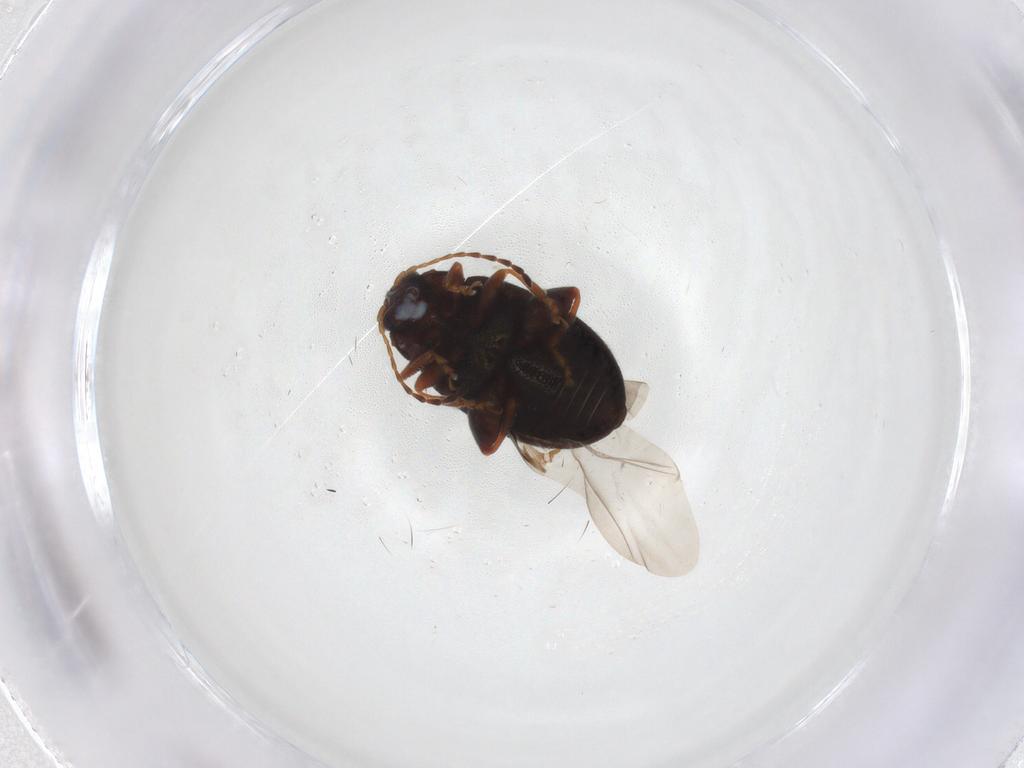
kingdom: Animalia
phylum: Arthropoda
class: Insecta
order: Coleoptera
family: Chrysomelidae
